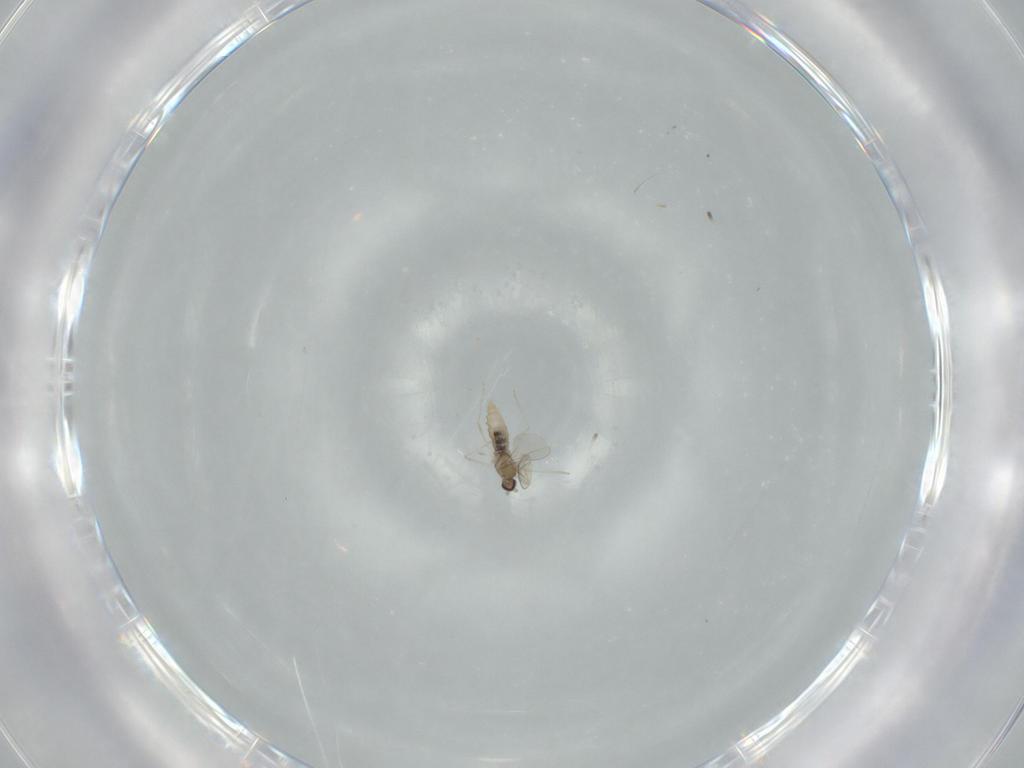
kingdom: Animalia
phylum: Arthropoda
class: Insecta
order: Diptera
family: Cecidomyiidae
